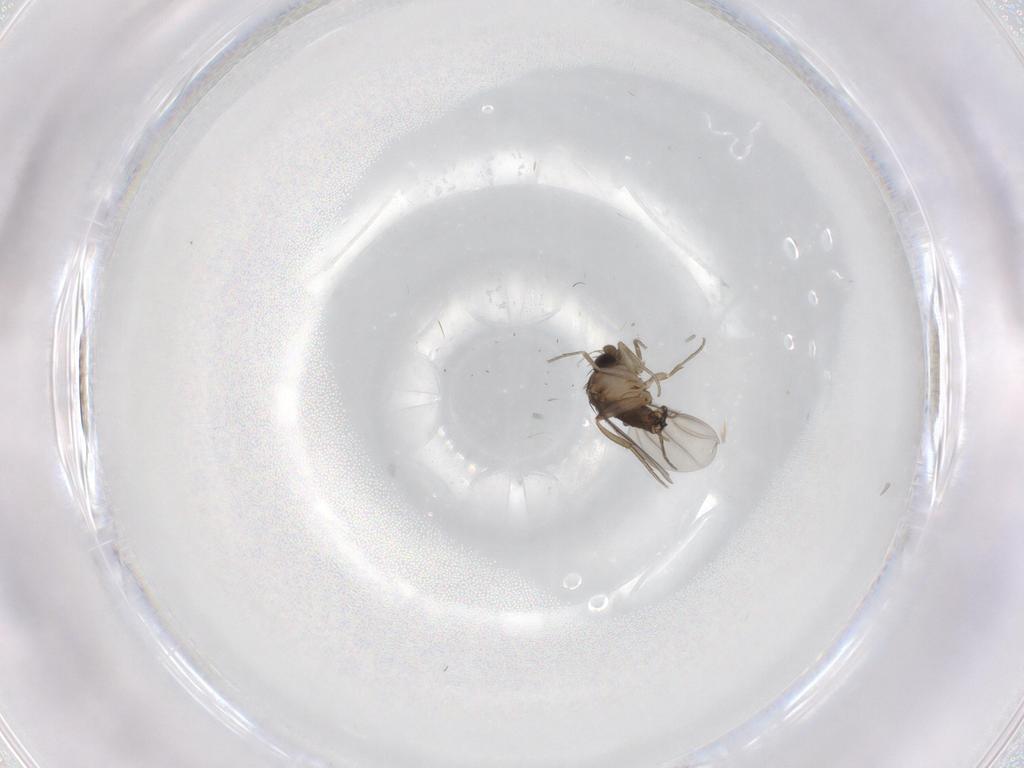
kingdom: Animalia
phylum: Arthropoda
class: Insecta
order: Diptera
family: Phoridae
